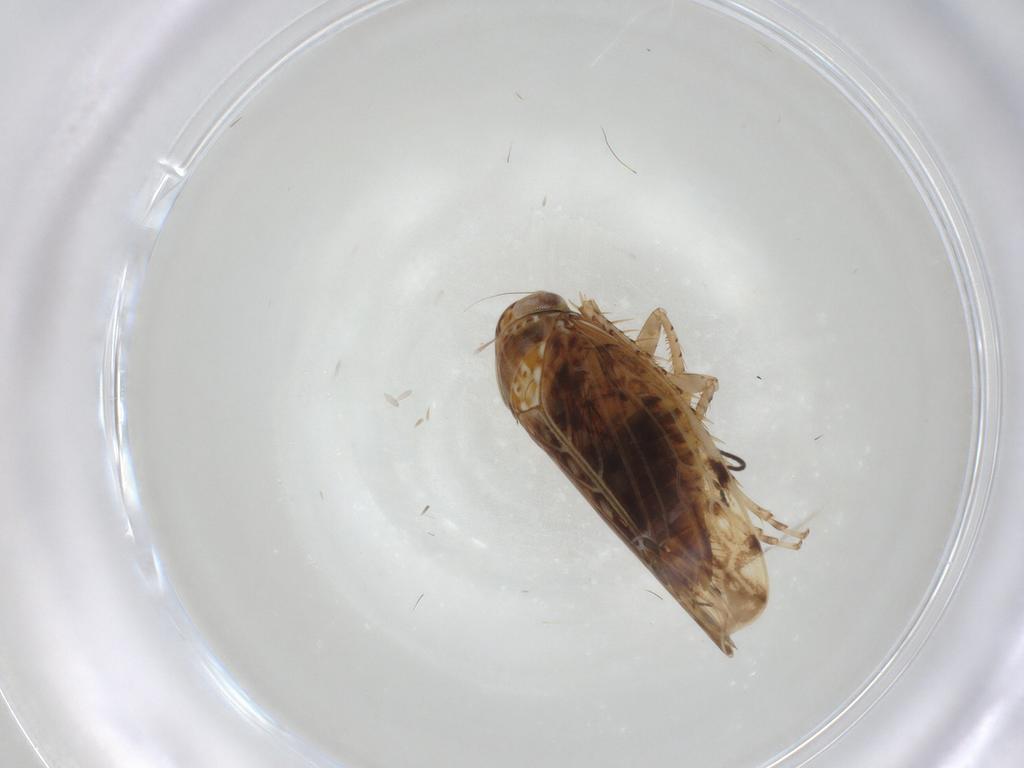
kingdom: Animalia
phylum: Arthropoda
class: Insecta
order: Hemiptera
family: Cicadellidae
